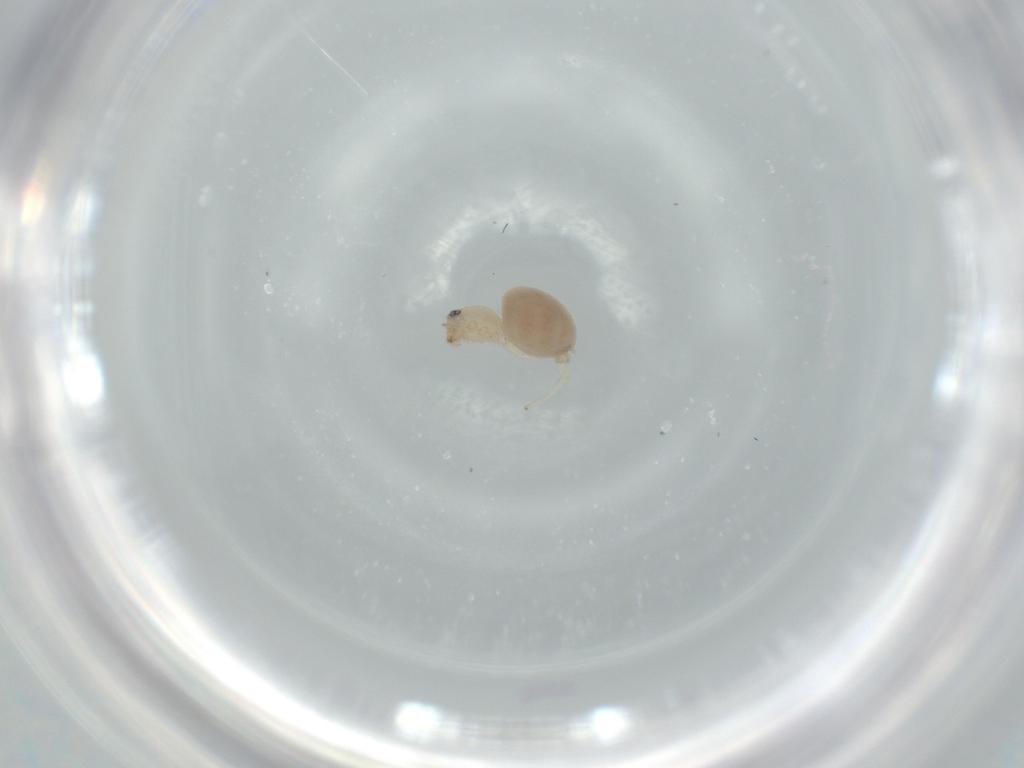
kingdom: Animalia
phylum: Arthropoda
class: Arachnida
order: Araneae
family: Oonopidae
